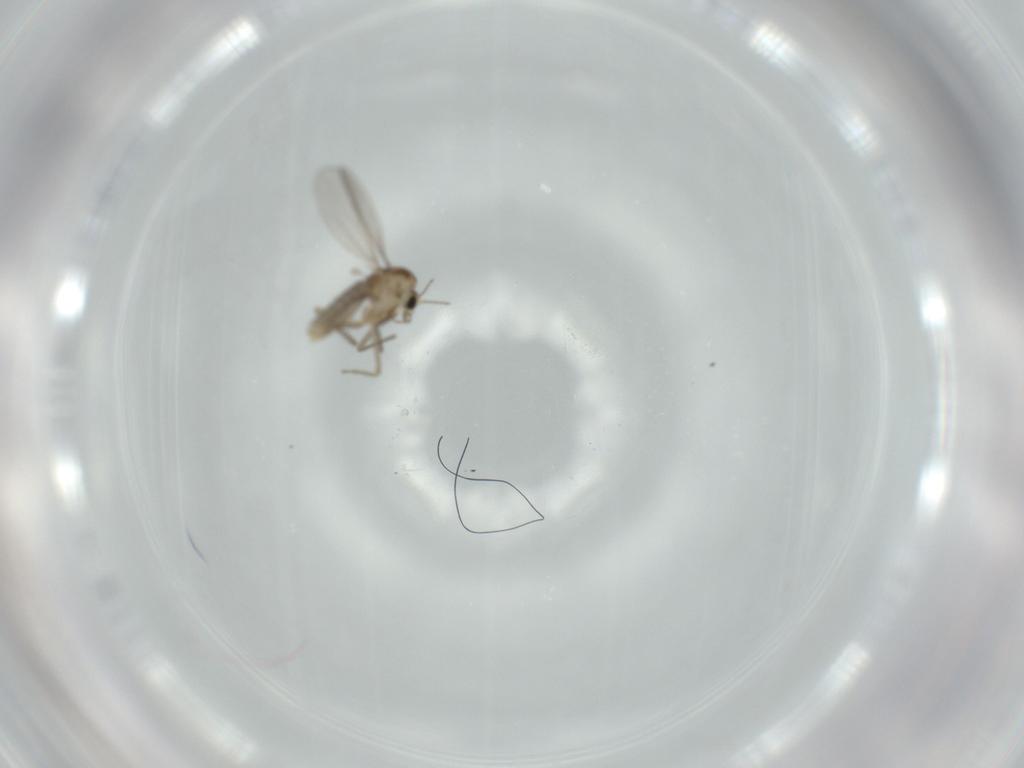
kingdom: Animalia
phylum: Arthropoda
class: Insecta
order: Diptera
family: Chironomidae
